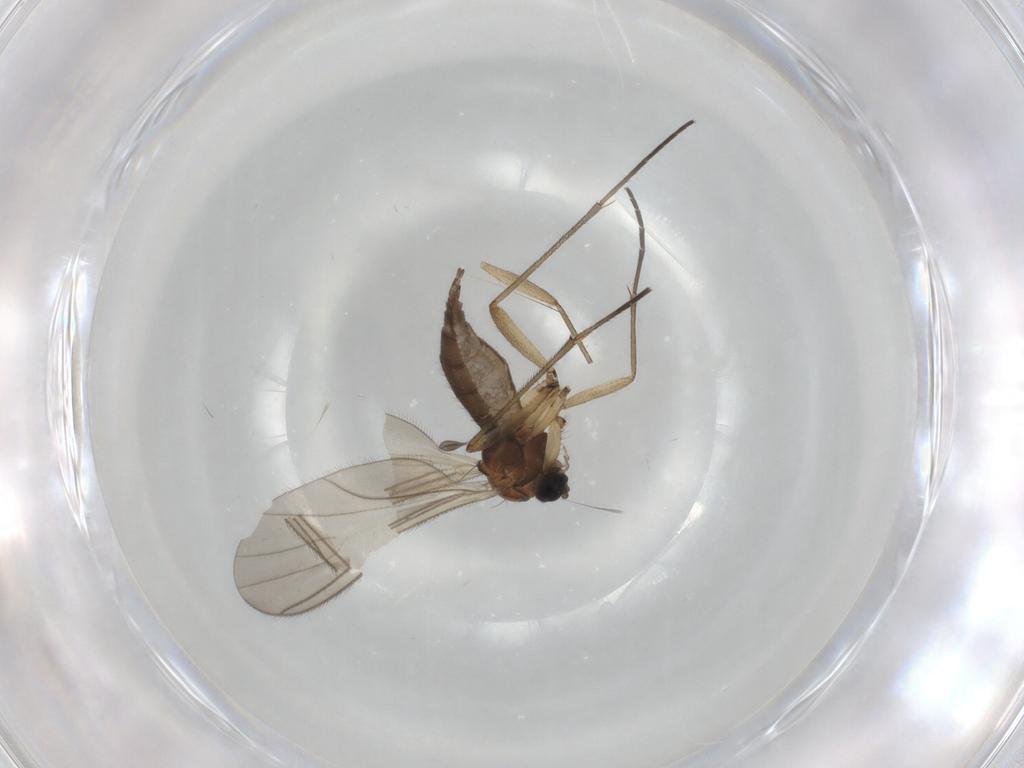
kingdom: Animalia
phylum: Arthropoda
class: Insecta
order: Diptera
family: Sciaridae
